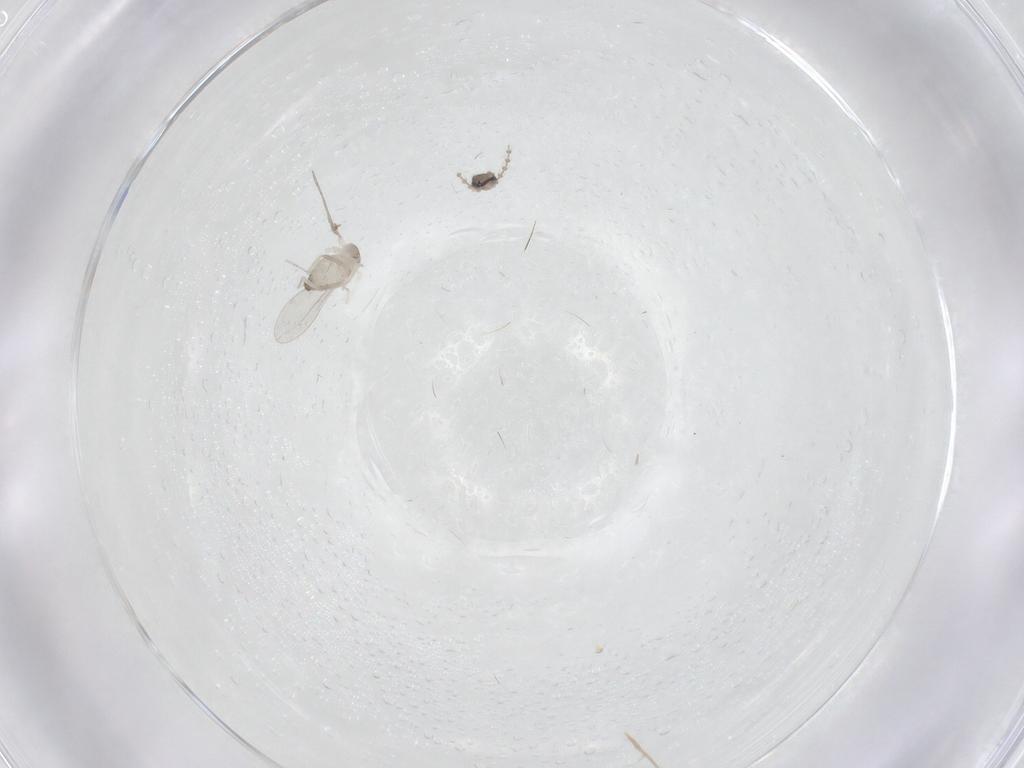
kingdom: Animalia
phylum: Arthropoda
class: Insecta
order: Diptera
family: Cecidomyiidae
